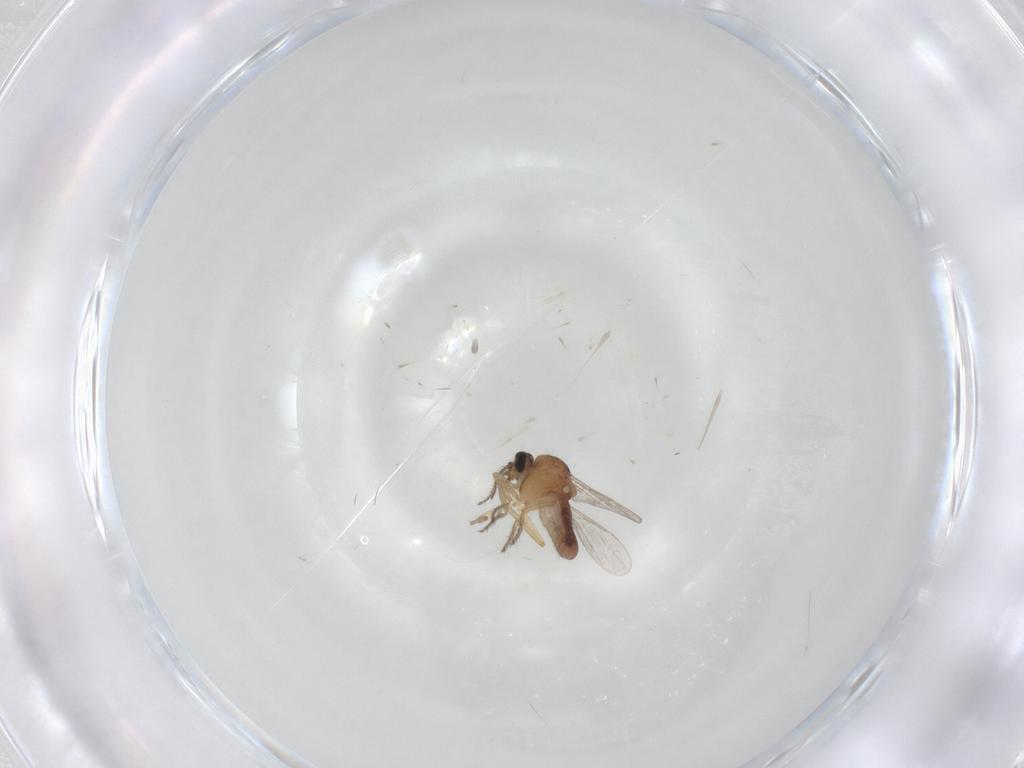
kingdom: Animalia
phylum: Arthropoda
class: Insecta
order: Diptera
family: Ceratopogonidae
